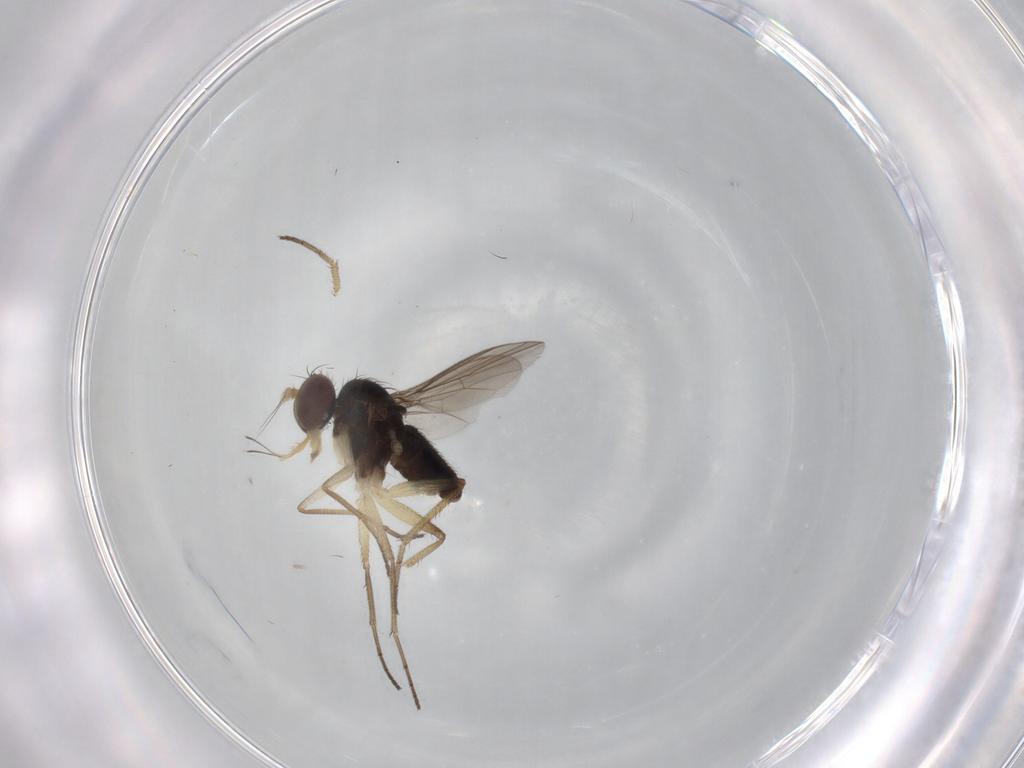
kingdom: Animalia
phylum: Arthropoda
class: Insecta
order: Diptera
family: Dolichopodidae
